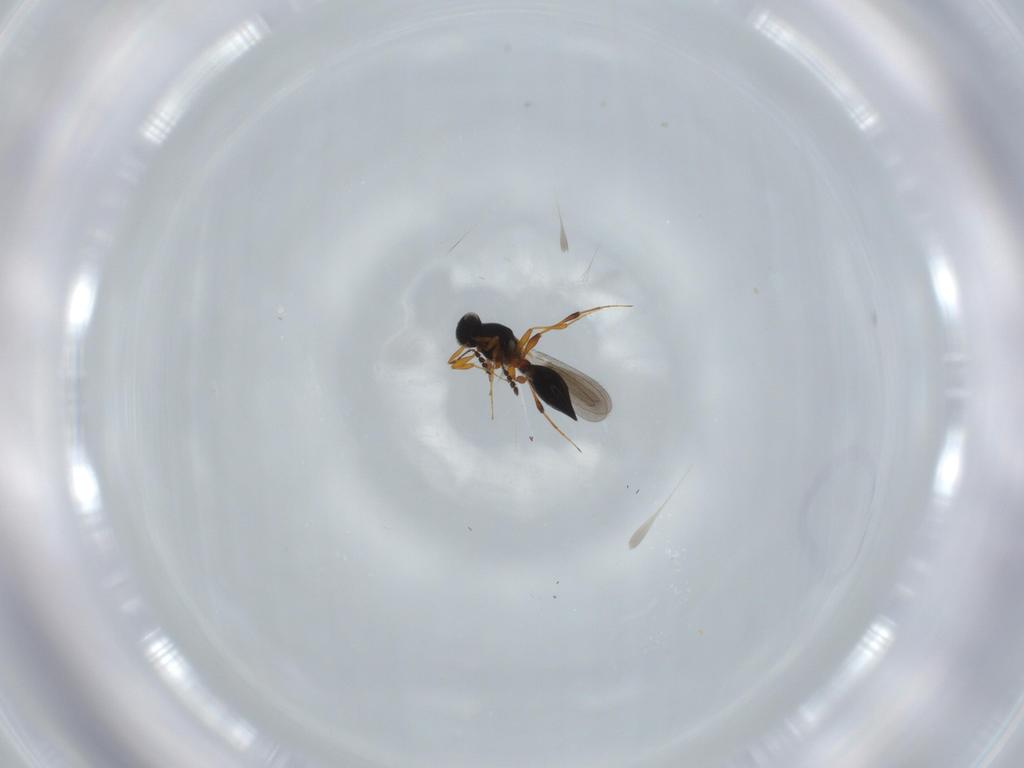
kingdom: Animalia
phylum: Arthropoda
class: Insecta
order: Hymenoptera
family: Platygastridae
